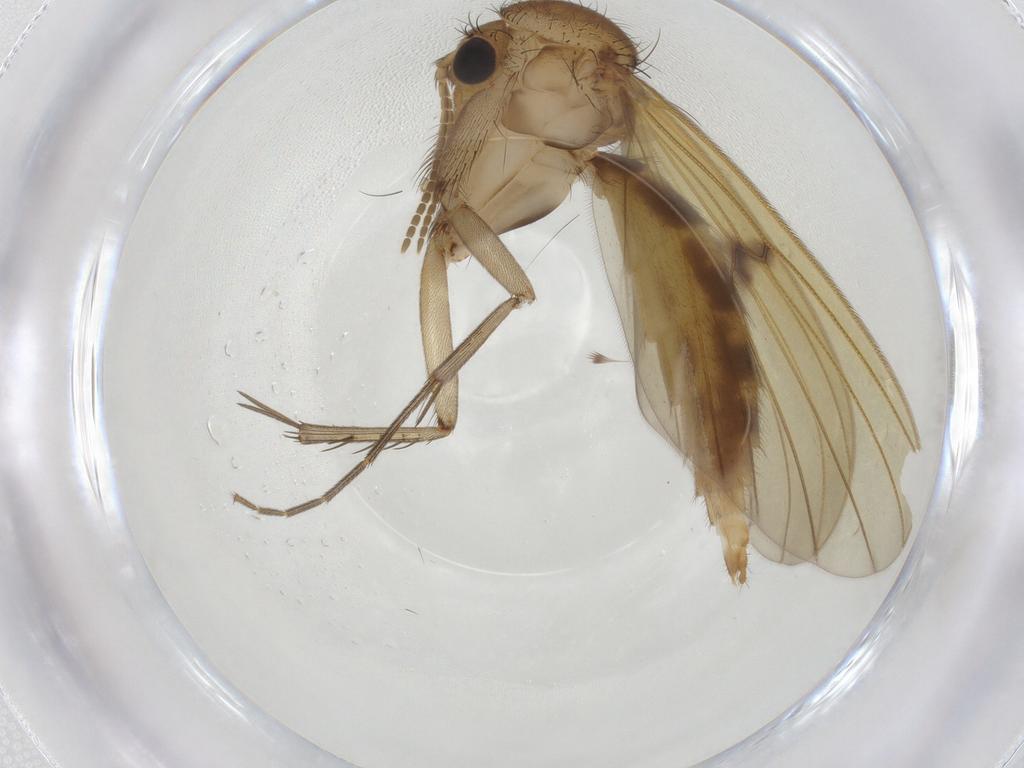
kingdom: Animalia
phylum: Arthropoda
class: Insecta
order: Diptera
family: Mycetophilidae
